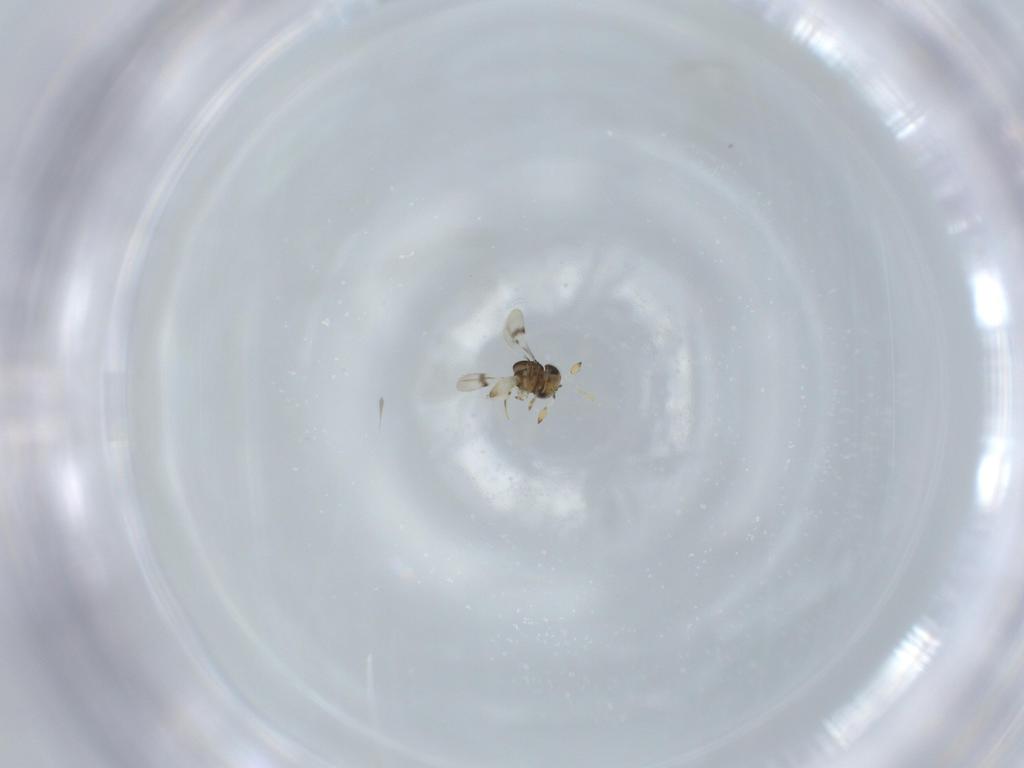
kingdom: Animalia
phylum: Arthropoda
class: Insecta
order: Hymenoptera
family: Scelionidae
